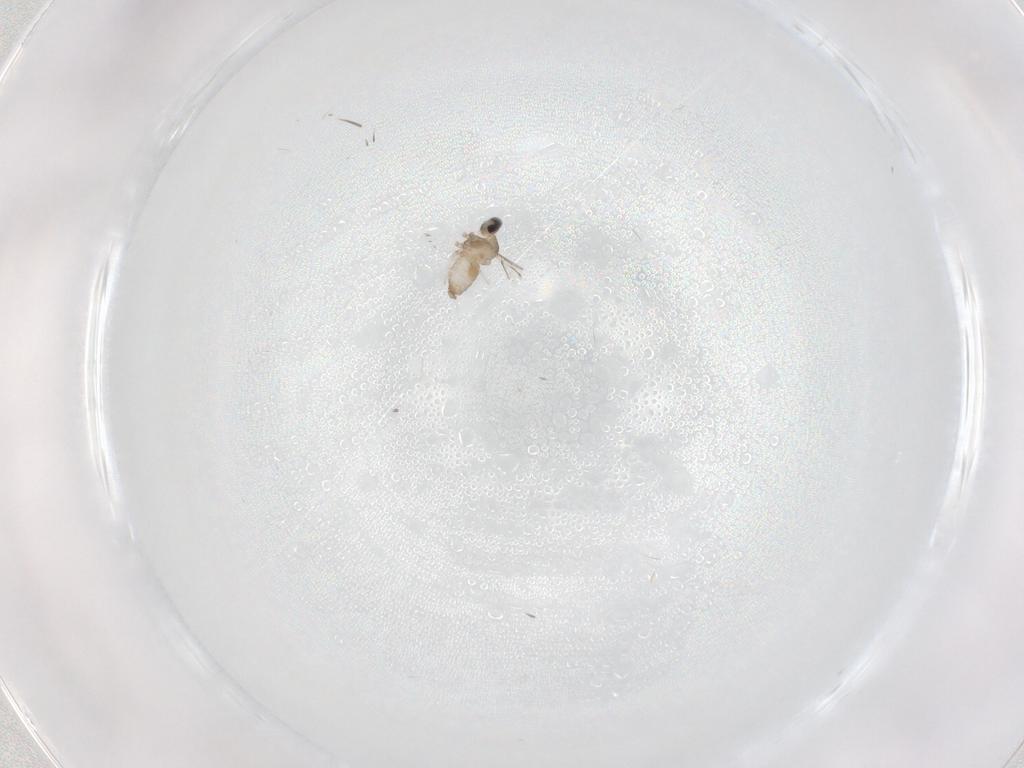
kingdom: Animalia
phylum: Arthropoda
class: Insecta
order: Diptera
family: Cecidomyiidae
